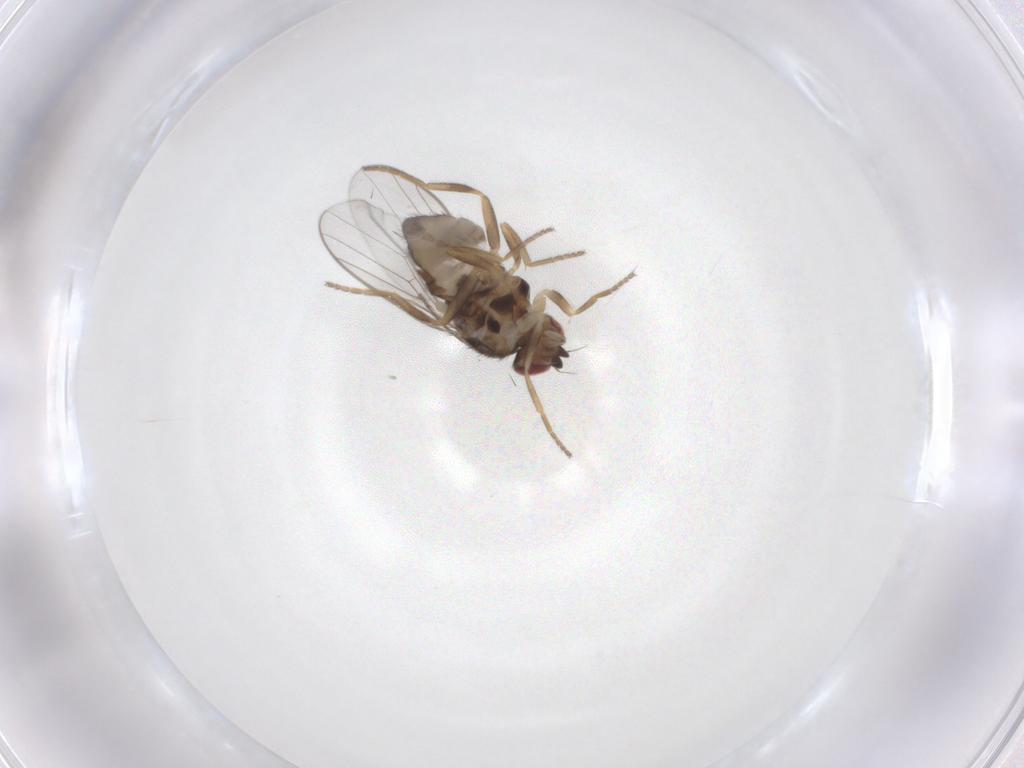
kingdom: Animalia
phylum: Arthropoda
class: Insecta
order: Diptera
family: Chloropidae
